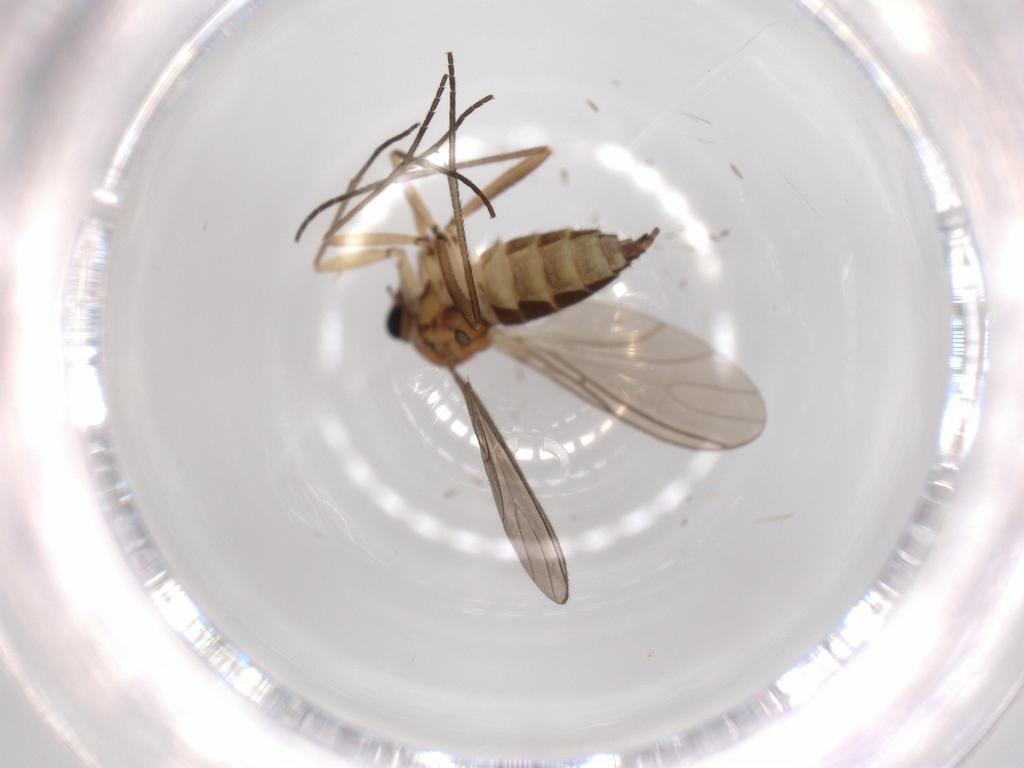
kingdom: Animalia
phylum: Arthropoda
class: Insecta
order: Diptera
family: Sciaridae
